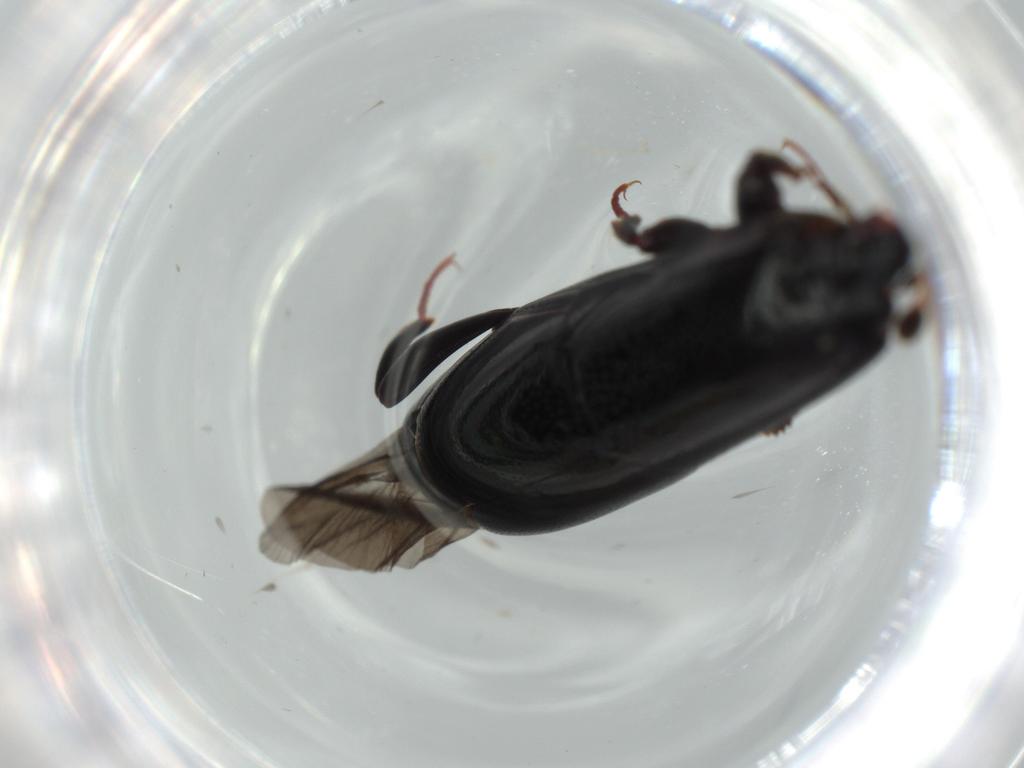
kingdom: Animalia
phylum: Arthropoda
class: Insecta
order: Coleoptera
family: Histeridae
